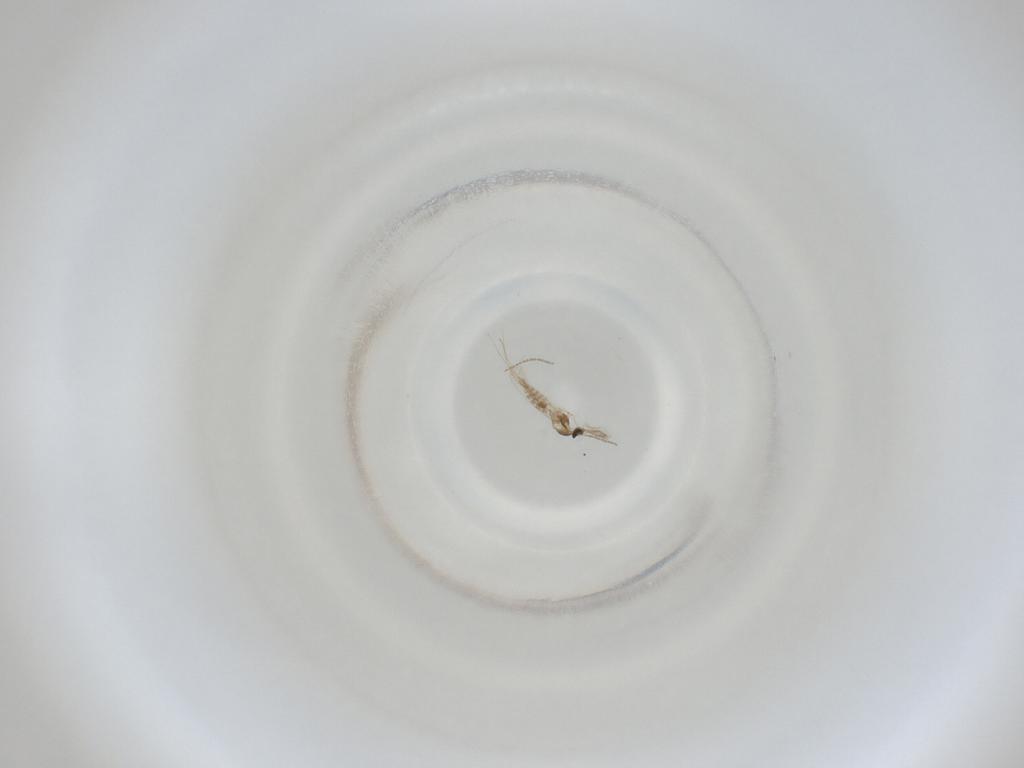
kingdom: Animalia
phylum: Arthropoda
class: Insecta
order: Diptera
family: Cecidomyiidae
